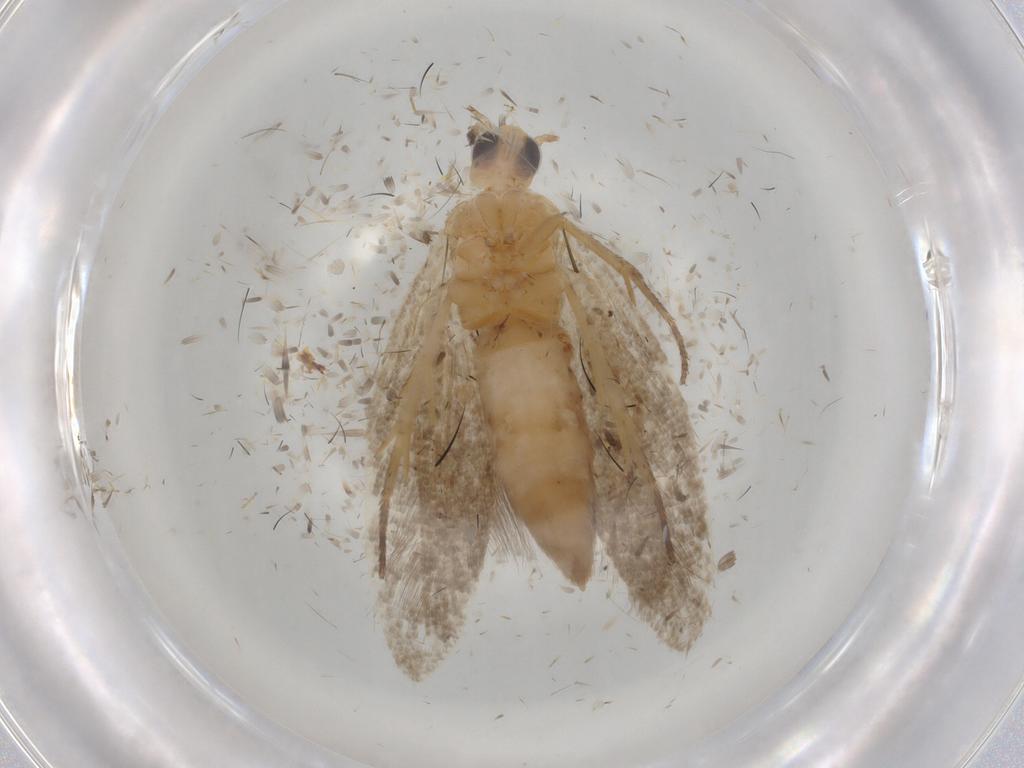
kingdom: Animalia
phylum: Arthropoda
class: Insecta
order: Lepidoptera
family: Plutellidae
